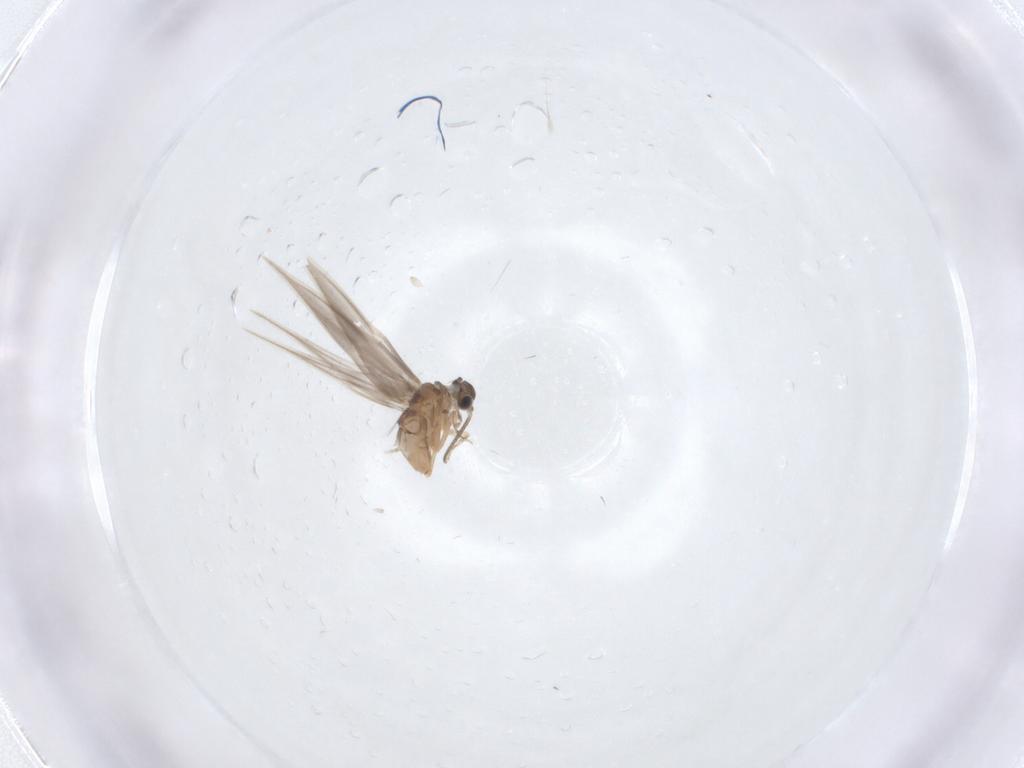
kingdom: Animalia
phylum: Arthropoda
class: Insecta
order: Trichoptera
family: Hydroptilidae
